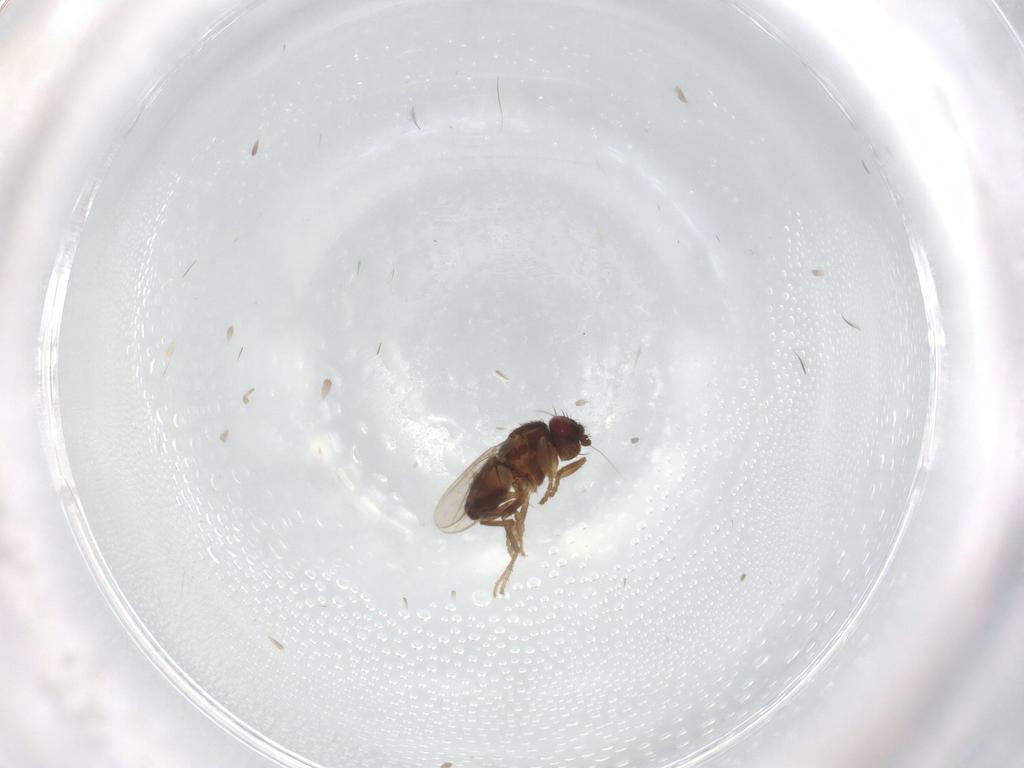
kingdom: Animalia
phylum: Arthropoda
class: Insecta
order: Diptera
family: Sphaeroceridae
